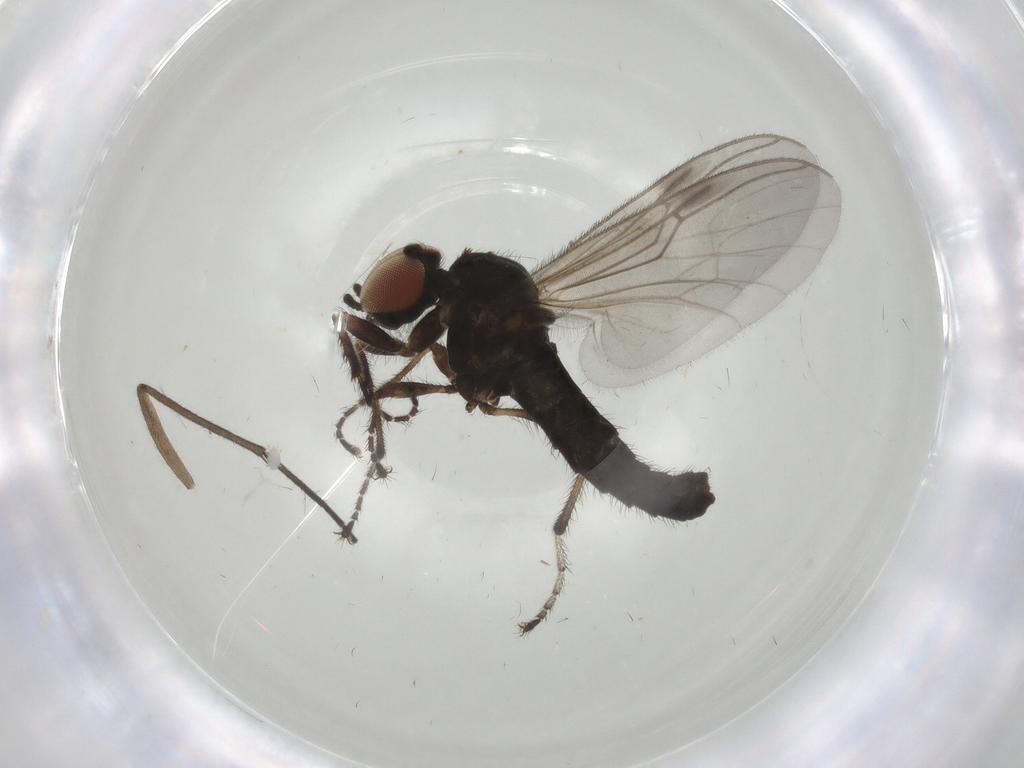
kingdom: Animalia
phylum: Arthropoda
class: Insecta
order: Diptera
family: Bibionidae
